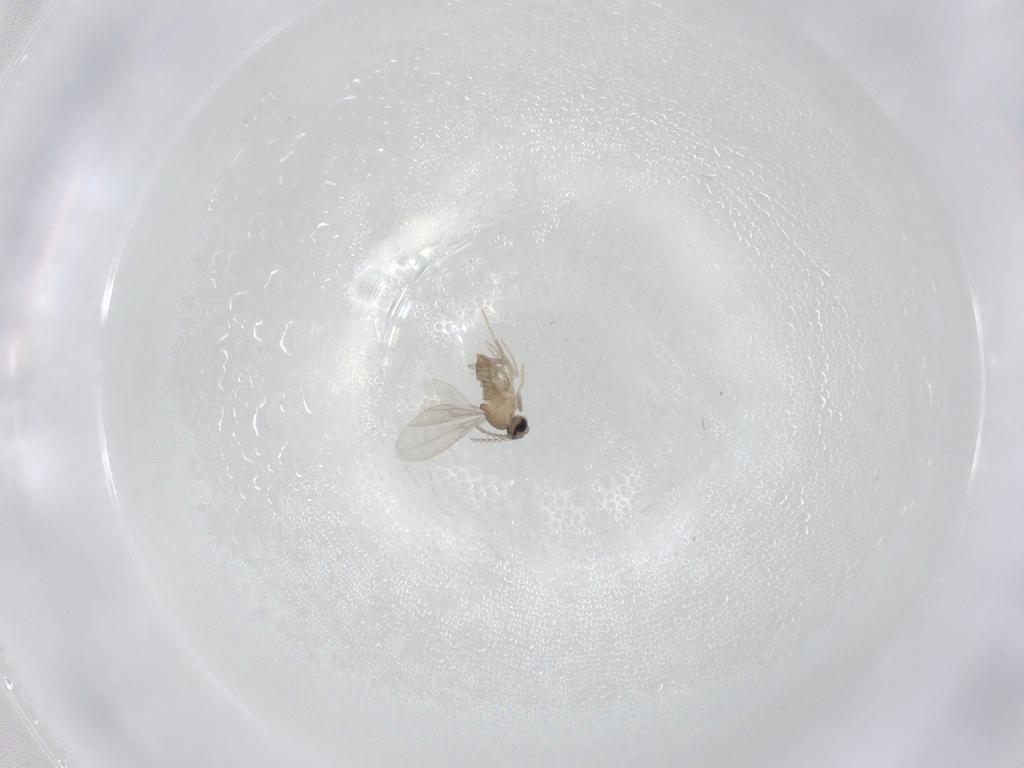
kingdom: Animalia
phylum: Arthropoda
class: Insecta
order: Diptera
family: Cecidomyiidae
